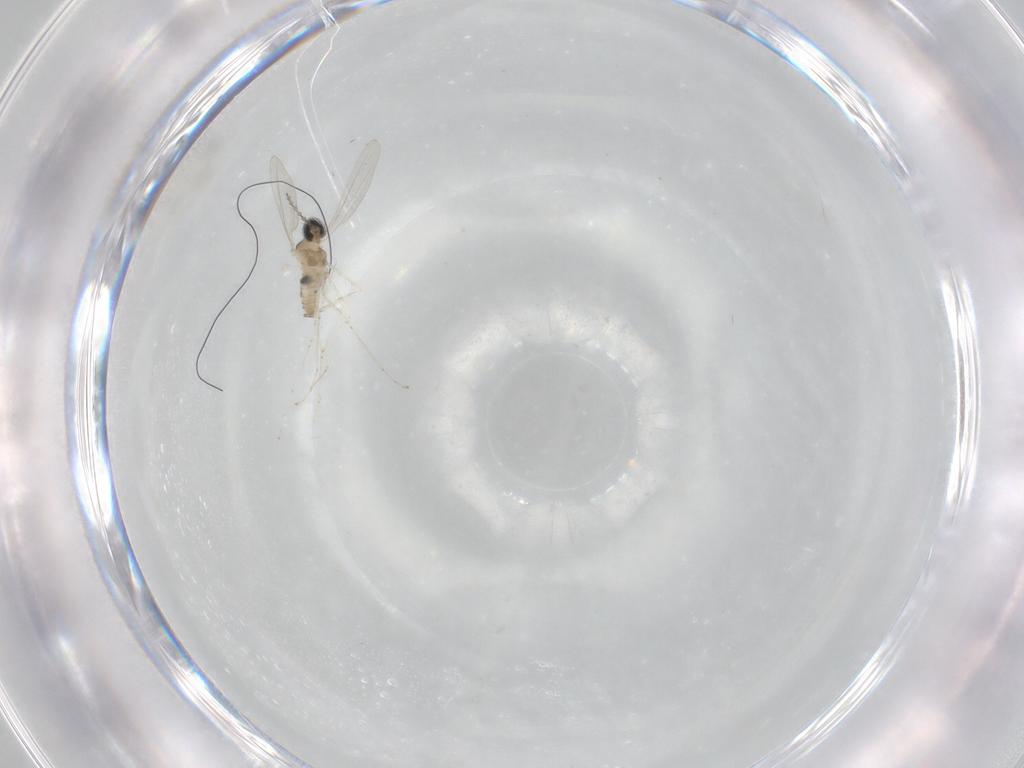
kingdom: Animalia
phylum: Arthropoda
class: Insecta
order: Diptera
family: Cecidomyiidae
